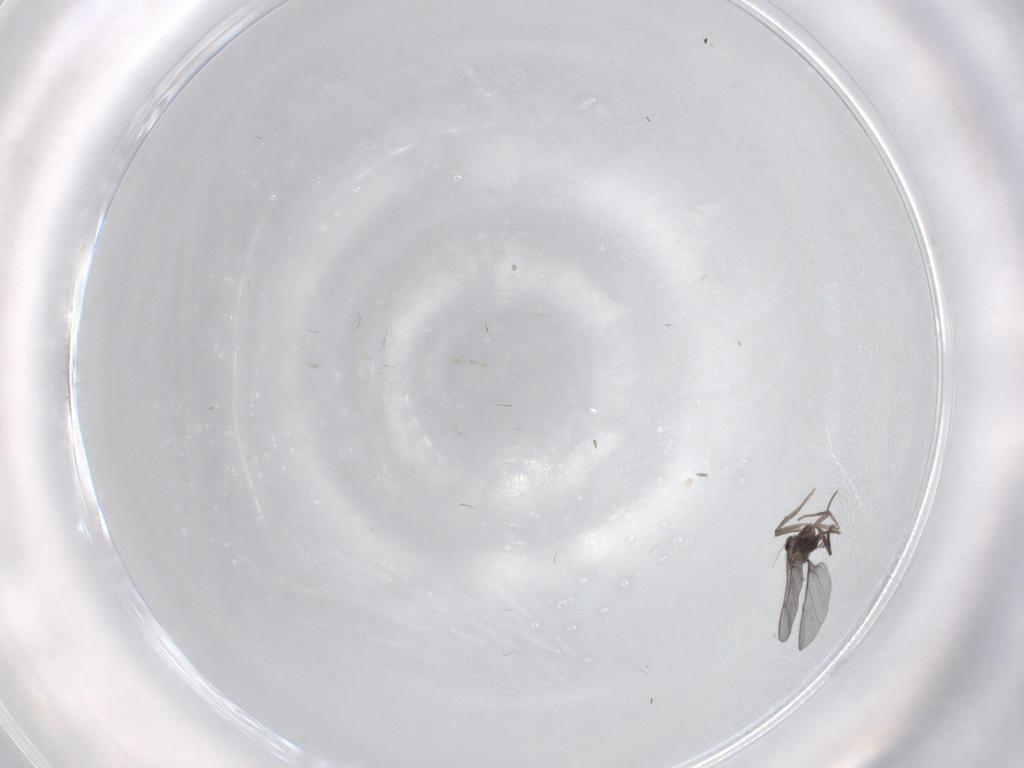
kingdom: Animalia
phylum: Arthropoda
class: Insecta
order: Diptera
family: Phoridae
